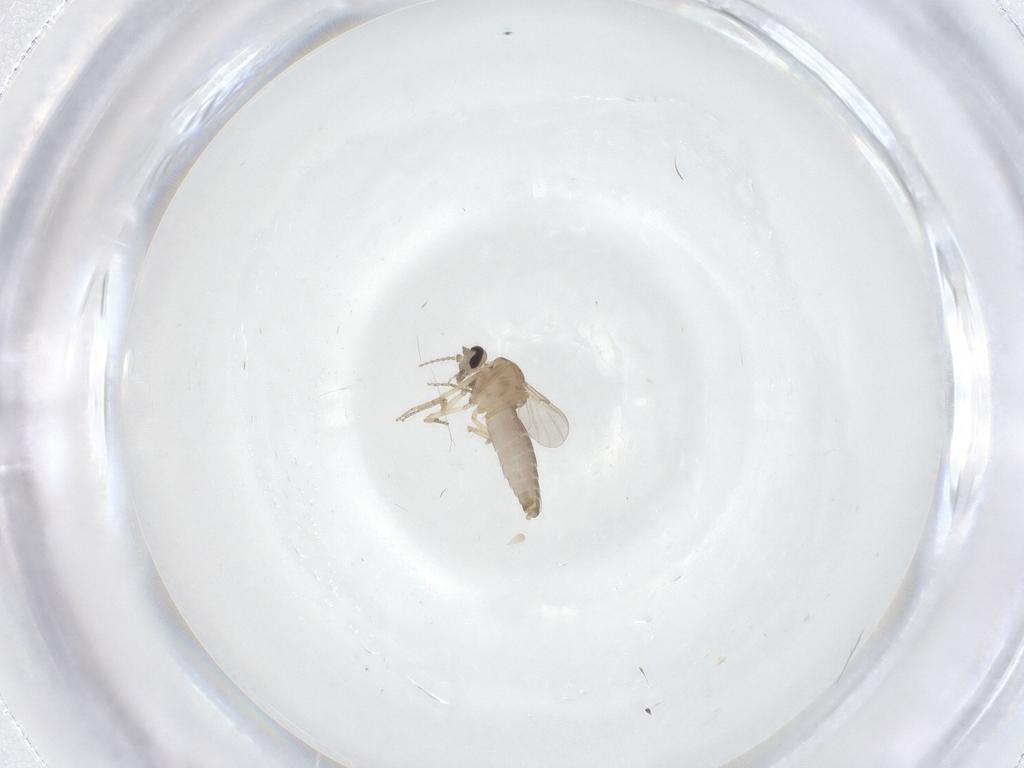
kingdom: Animalia
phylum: Arthropoda
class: Insecta
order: Diptera
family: Ceratopogonidae
